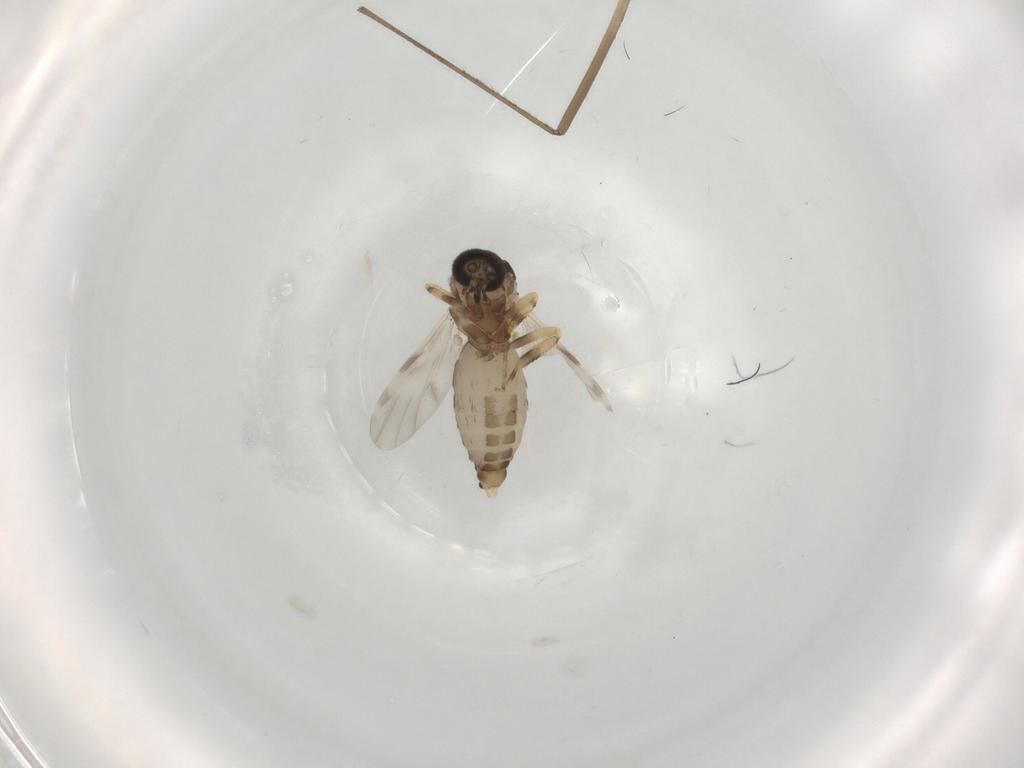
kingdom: Animalia
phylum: Arthropoda
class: Insecta
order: Diptera
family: Ceratopogonidae
